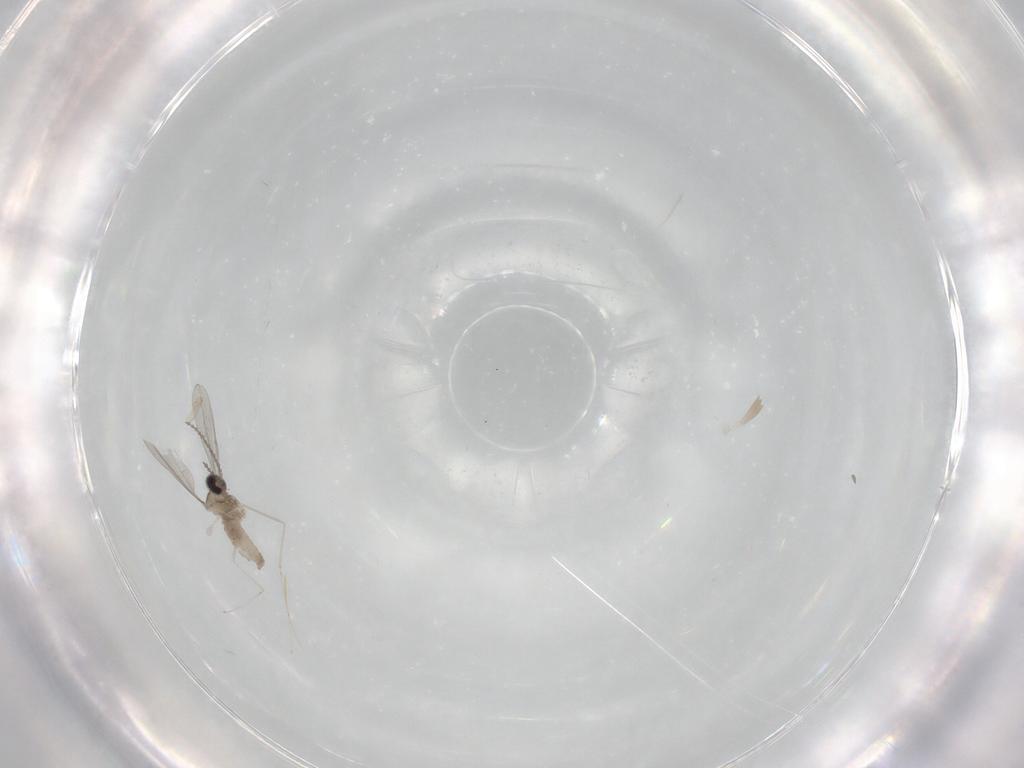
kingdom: Animalia
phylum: Arthropoda
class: Insecta
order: Diptera
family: Cecidomyiidae
